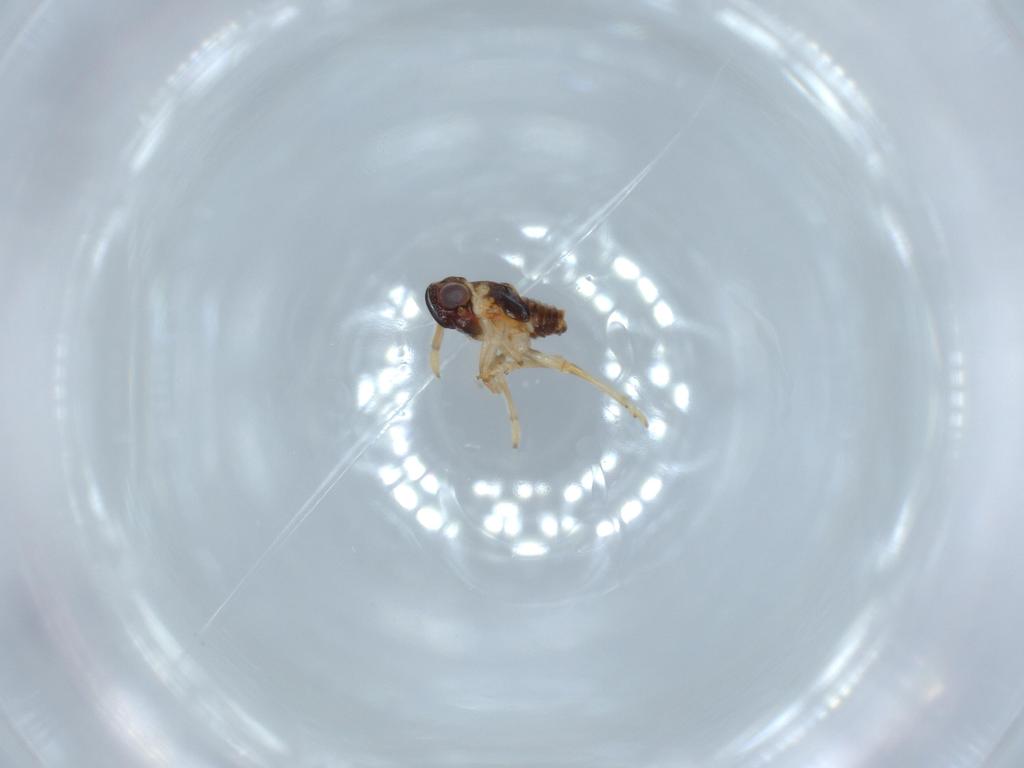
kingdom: Animalia
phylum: Arthropoda
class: Insecta
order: Hemiptera
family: Issidae
